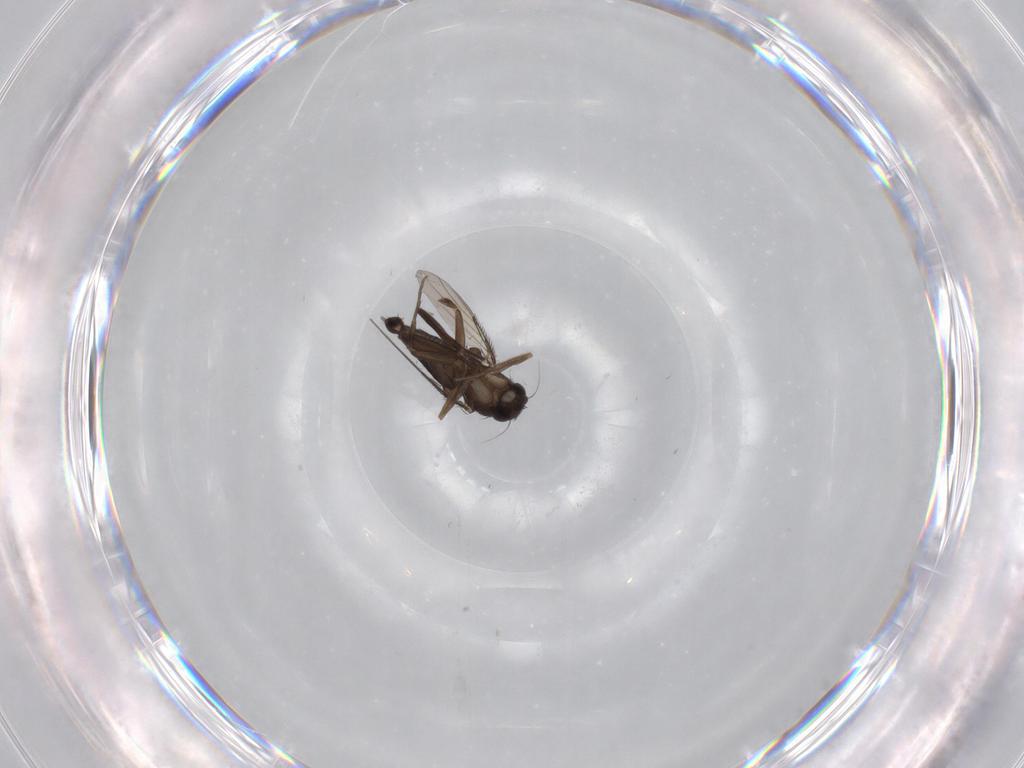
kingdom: Animalia
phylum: Arthropoda
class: Insecta
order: Diptera
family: Phoridae
